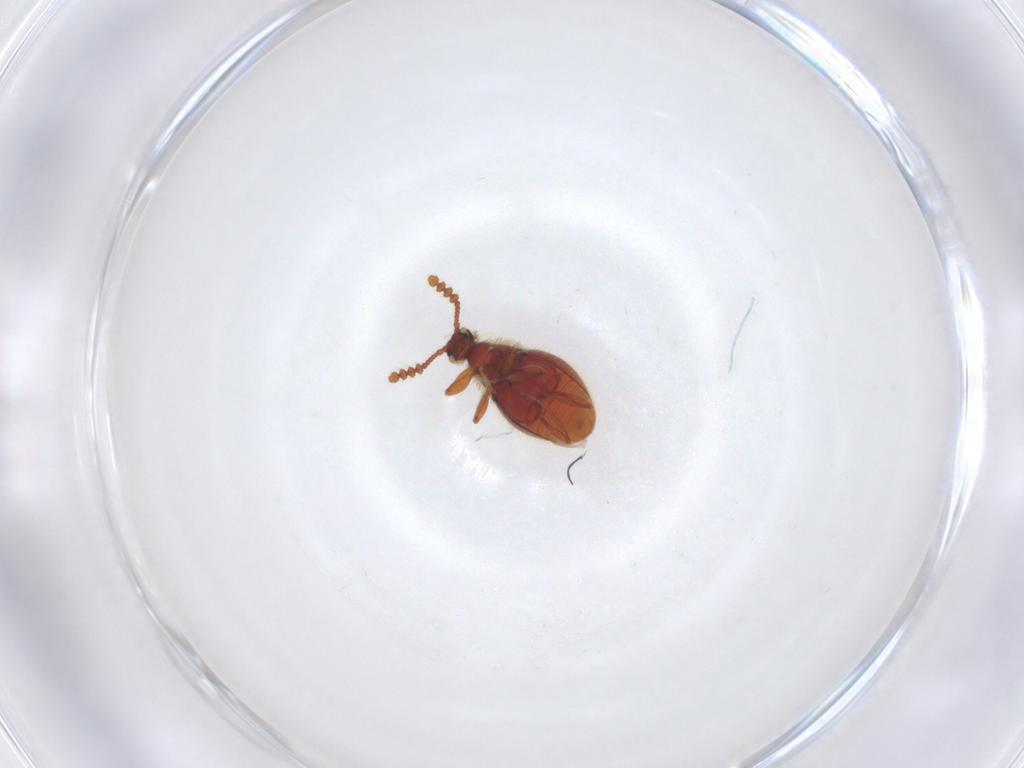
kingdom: Animalia
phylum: Arthropoda
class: Insecta
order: Coleoptera
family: Staphylinidae
